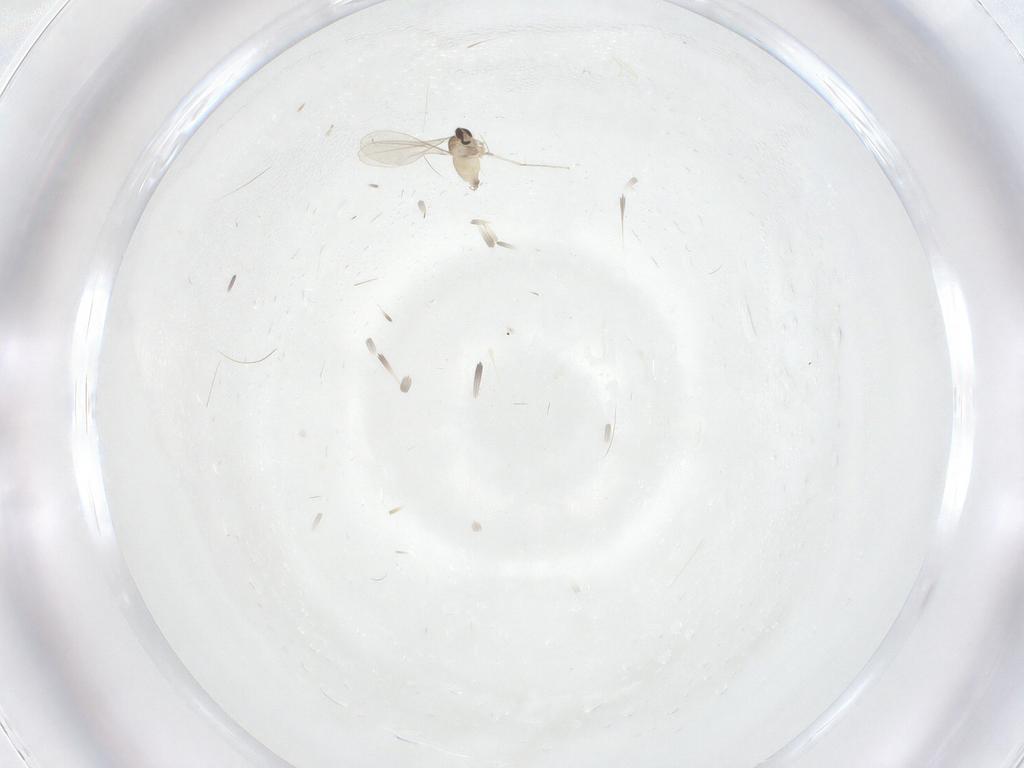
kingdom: Animalia
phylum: Arthropoda
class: Insecta
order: Diptera
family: Cecidomyiidae
